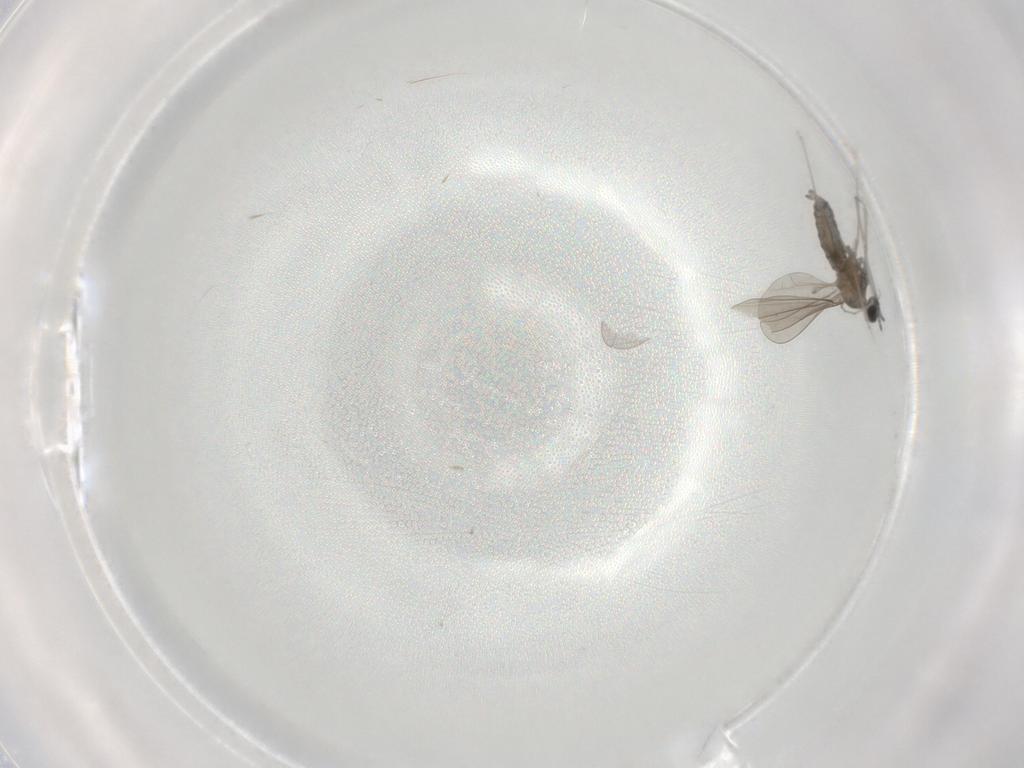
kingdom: Animalia
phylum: Arthropoda
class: Insecta
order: Diptera
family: Cecidomyiidae
